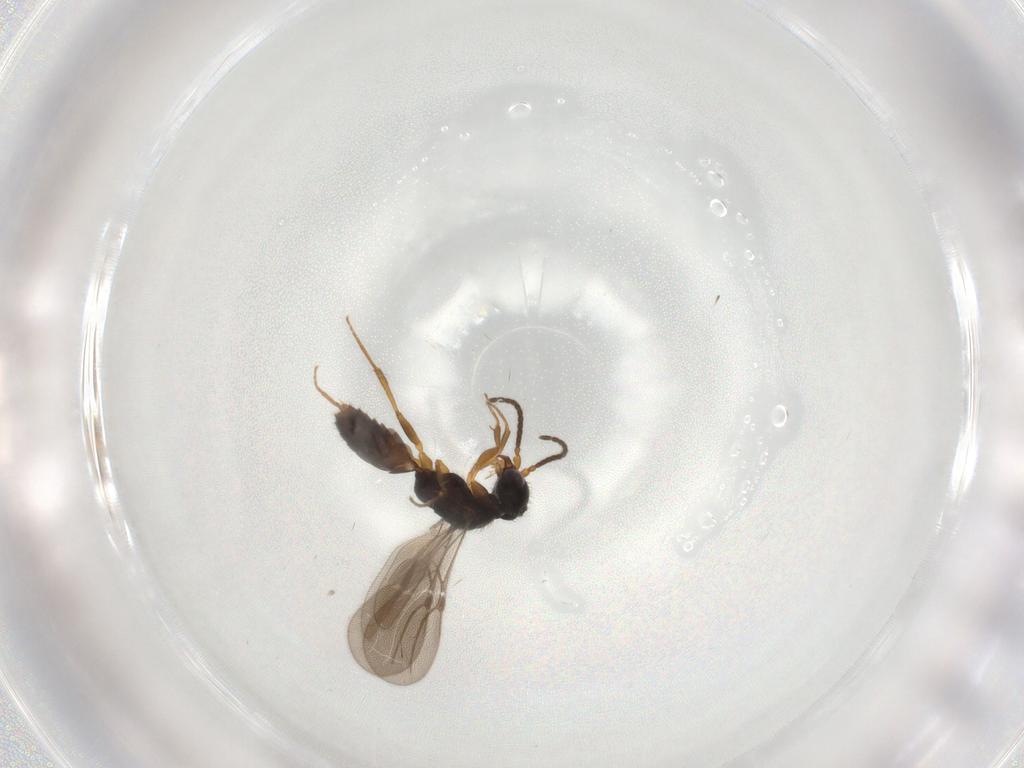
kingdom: Animalia
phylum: Arthropoda
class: Insecta
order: Hymenoptera
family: Bethylidae
